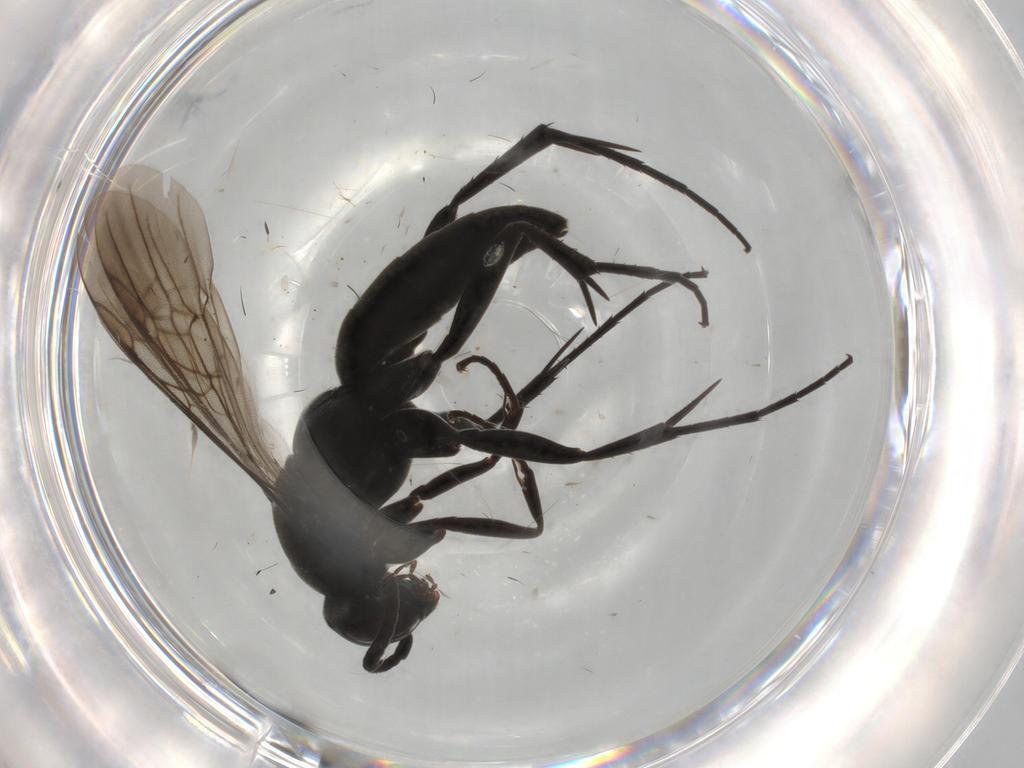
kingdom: Animalia
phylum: Arthropoda
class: Insecta
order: Hymenoptera
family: Pompilidae
